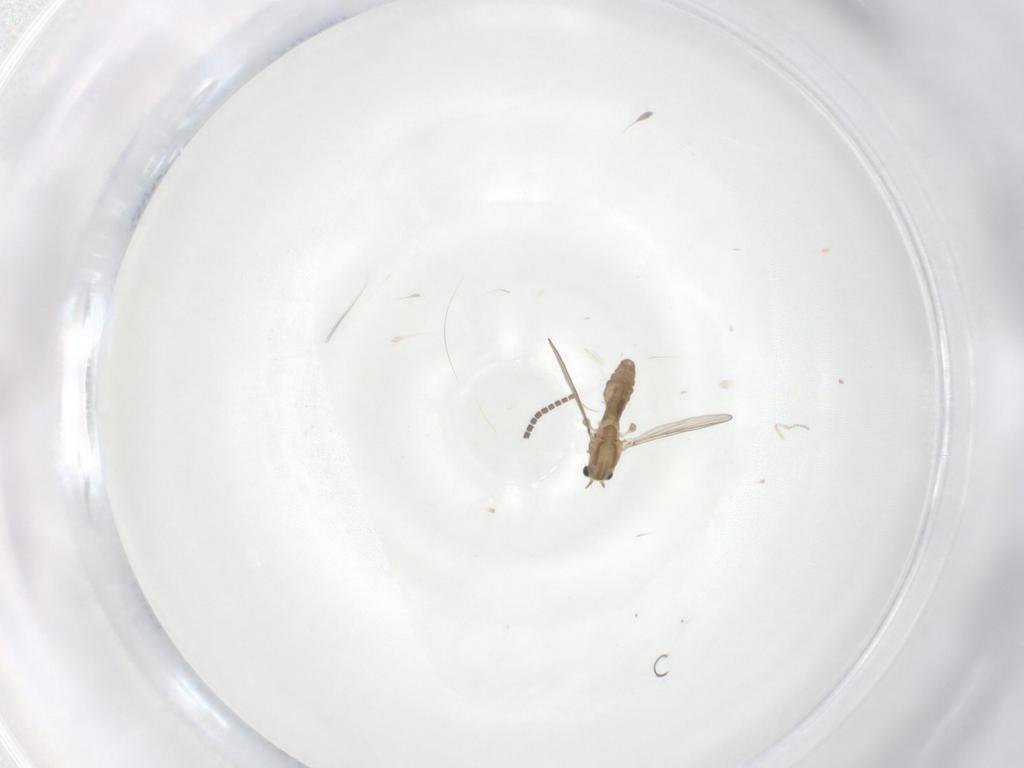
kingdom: Animalia
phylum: Arthropoda
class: Insecta
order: Diptera
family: Chironomidae
